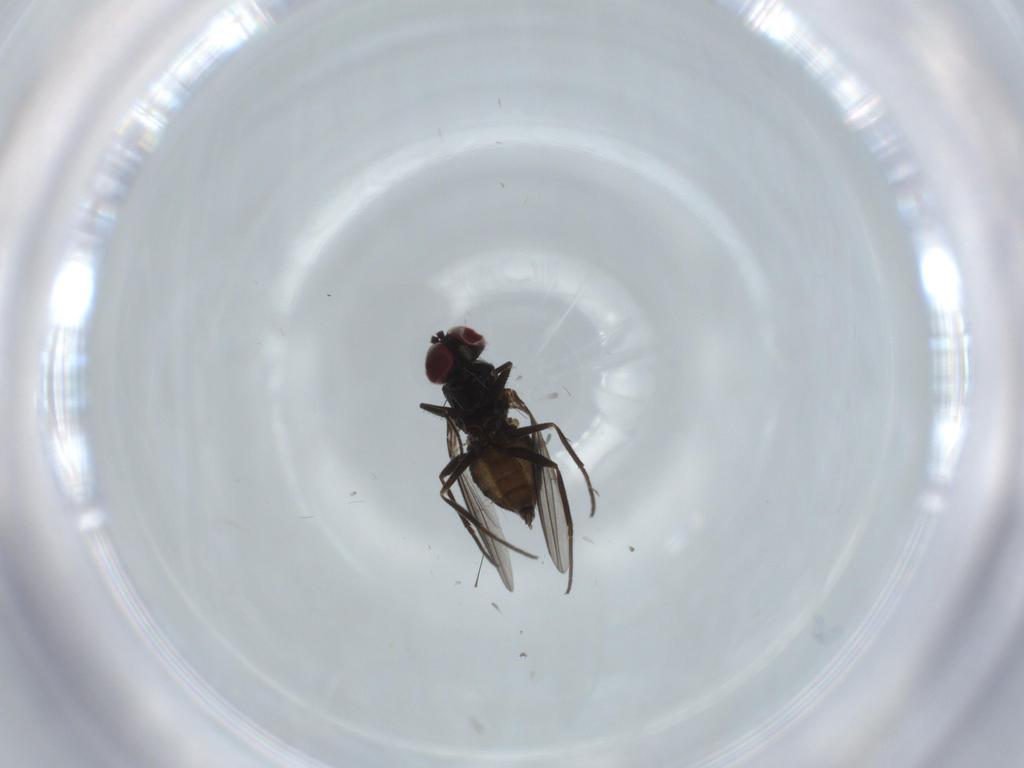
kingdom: Animalia
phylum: Arthropoda
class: Insecta
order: Diptera
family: Dolichopodidae
